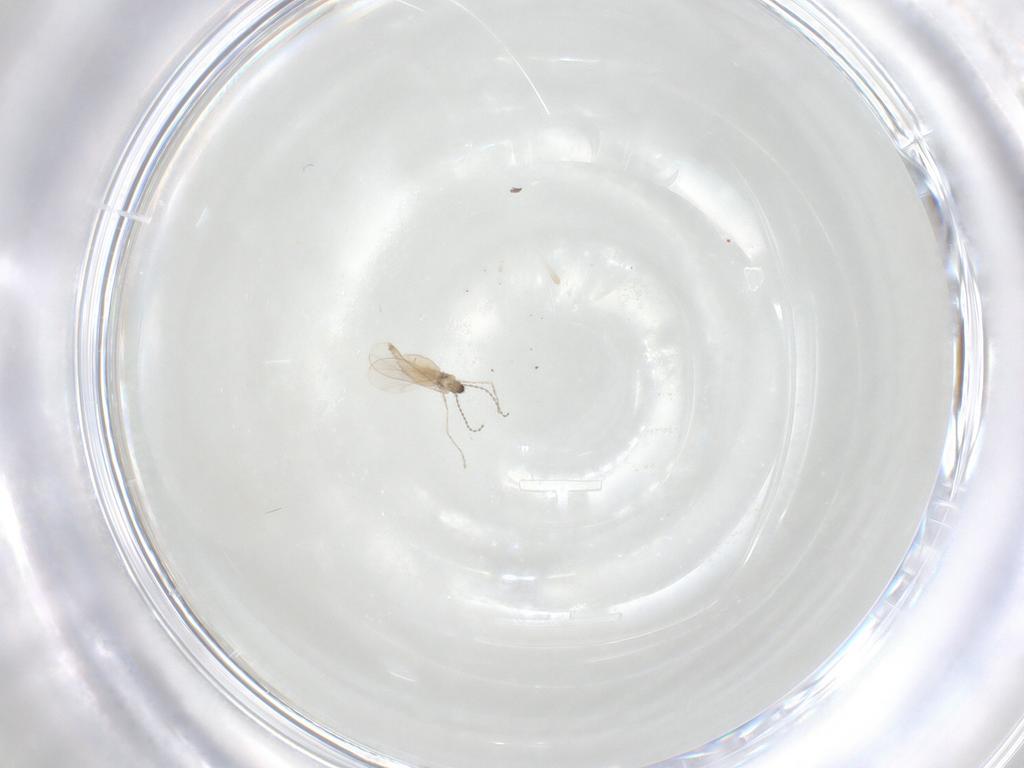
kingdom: Animalia
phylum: Arthropoda
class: Insecta
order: Diptera
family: Cecidomyiidae
